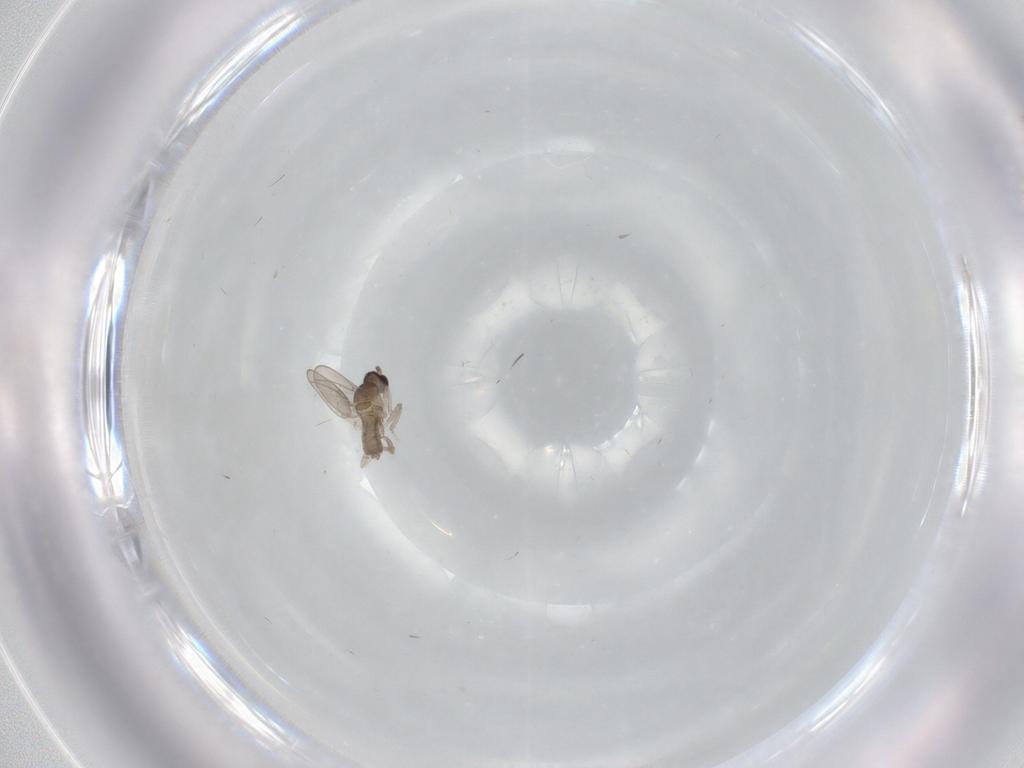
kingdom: Animalia
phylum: Arthropoda
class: Insecta
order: Diptera
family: Cecidomyiidae
